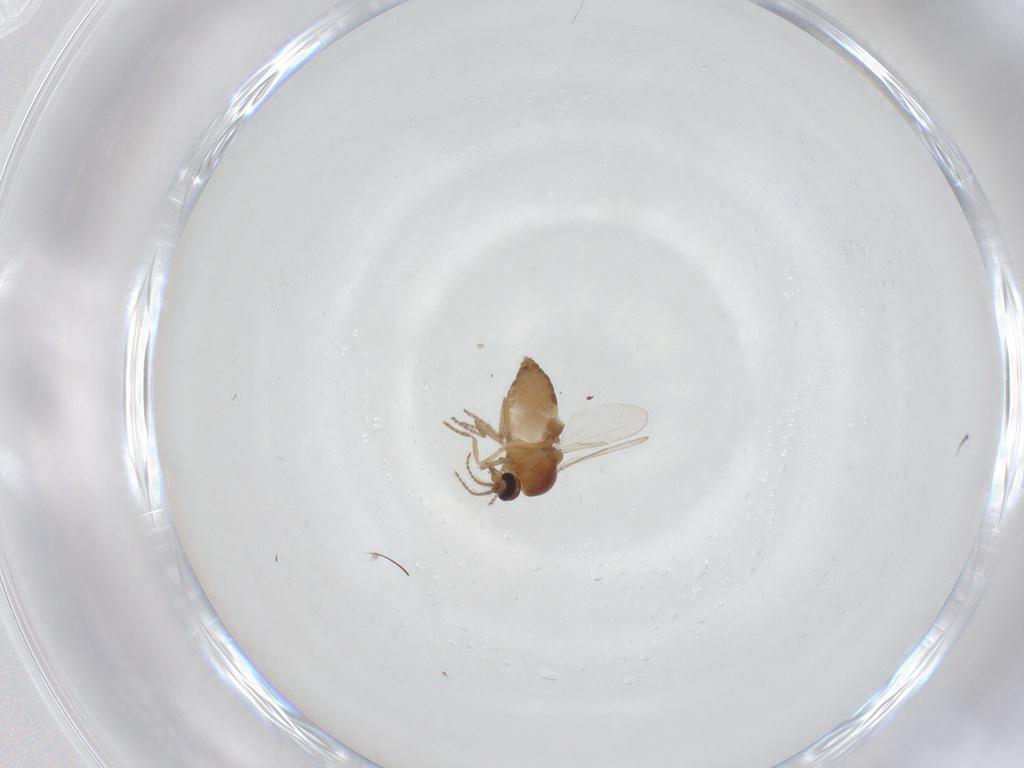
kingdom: Animalia
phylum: Arthropoda
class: Insecta
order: Diptera
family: Ceratopogonidae
